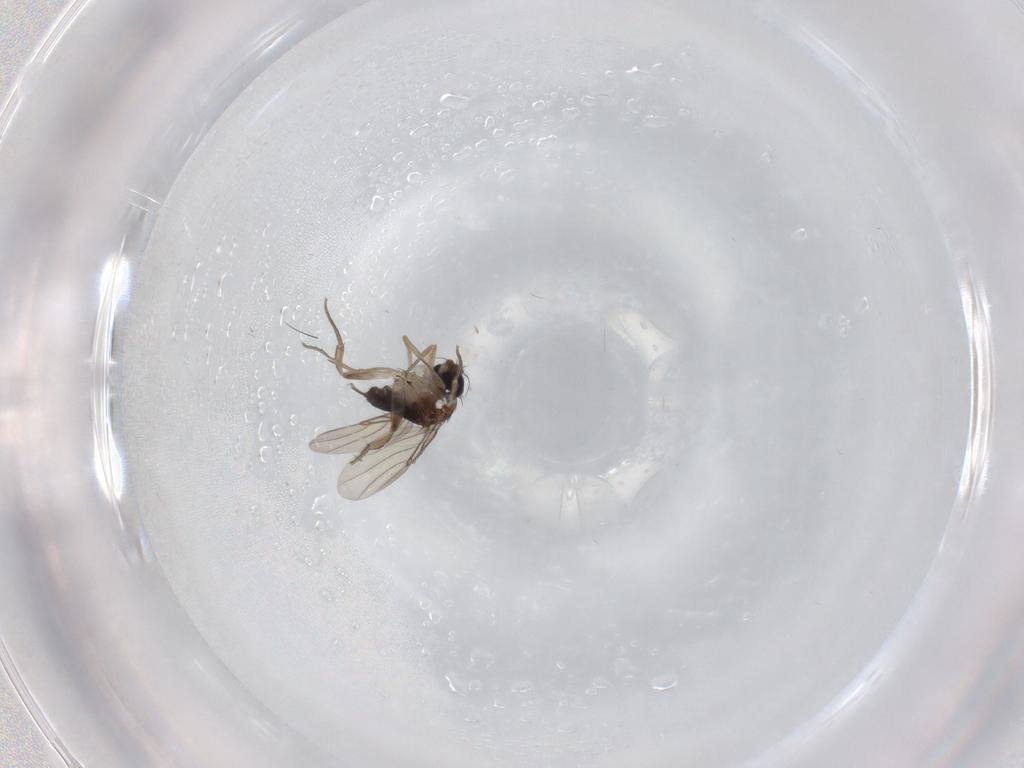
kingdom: Animalia
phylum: Arthropoda
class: Insecta
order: Diptera
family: Phoridae
